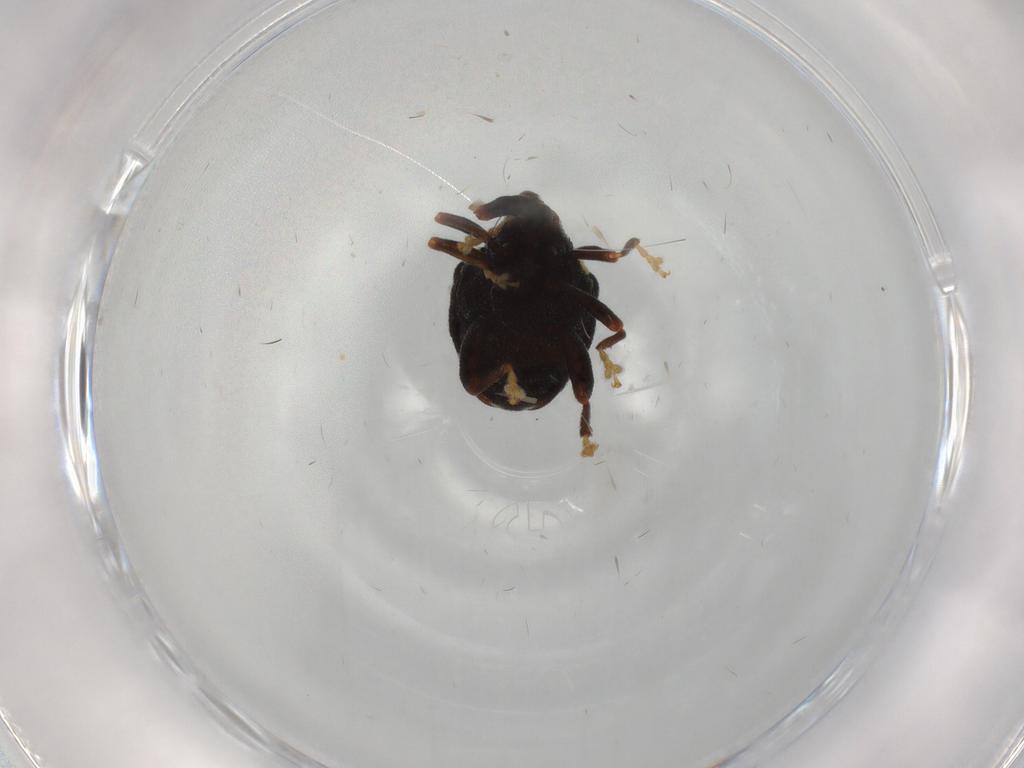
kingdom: Animalia
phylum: Arthropoda
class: Insecta
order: Coleoptera
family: Curculionidae
